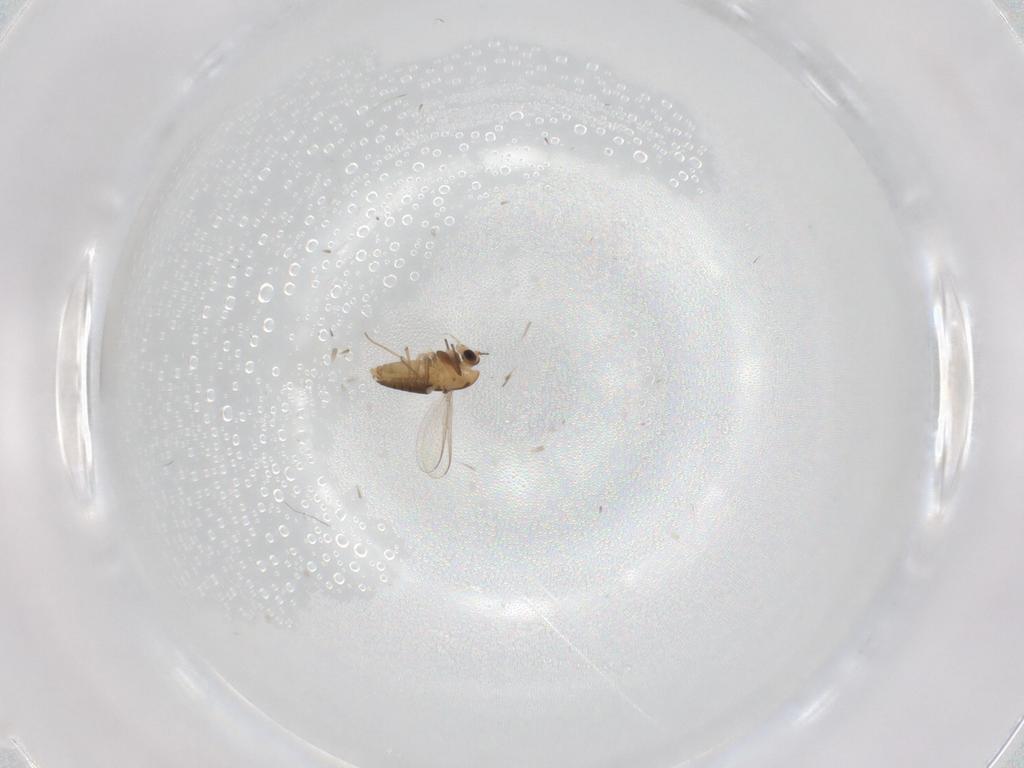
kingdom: Animalia
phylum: Arthropoda
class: Insecta
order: Diptera
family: Chironomidae
